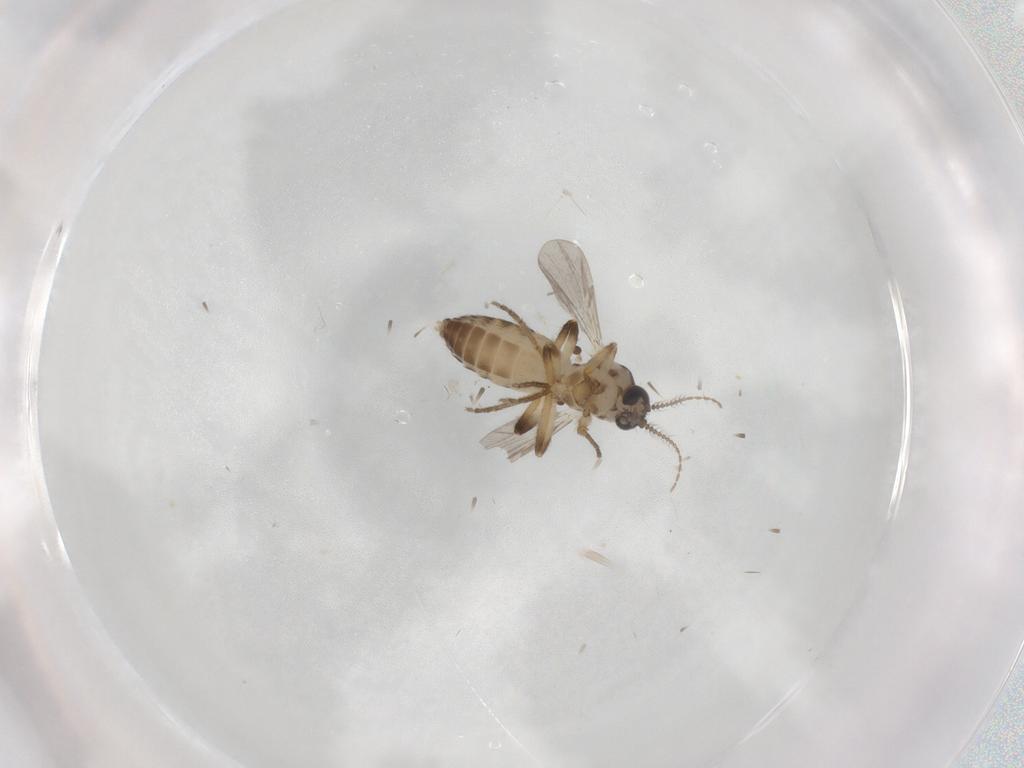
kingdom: Animalia
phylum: Arthropoda
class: Insecta
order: Diptera
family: Ceratopogonidae
